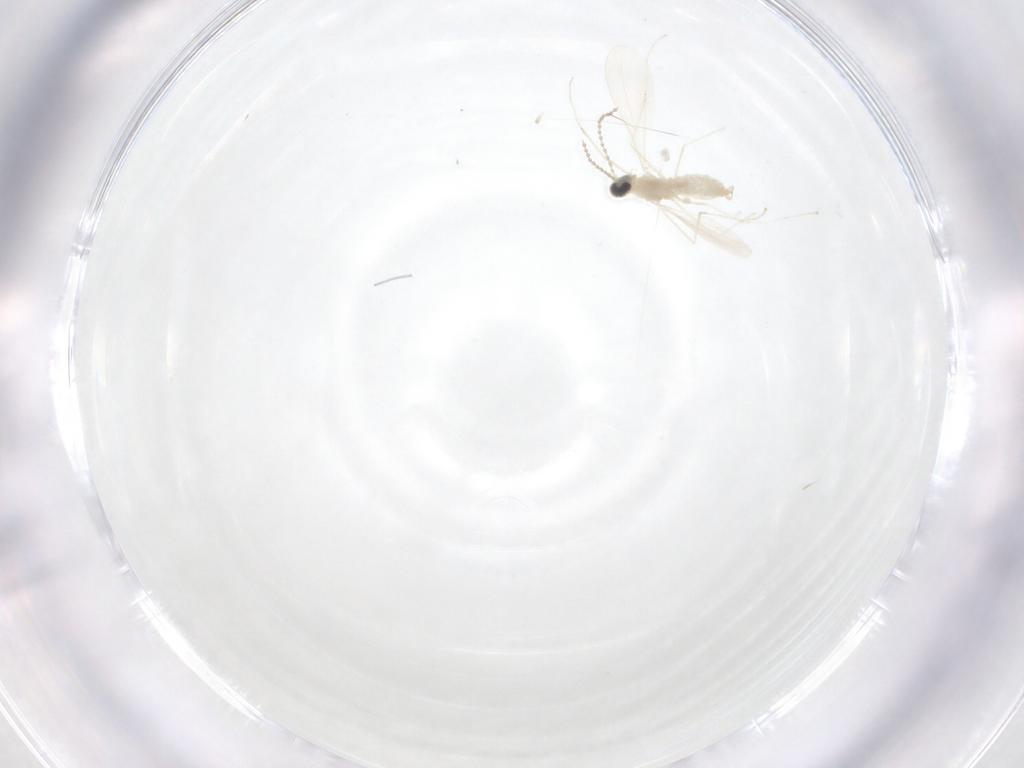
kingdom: Animalia
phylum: Arthropoda
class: Insecta
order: Diptera
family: Cecidomyiidae
